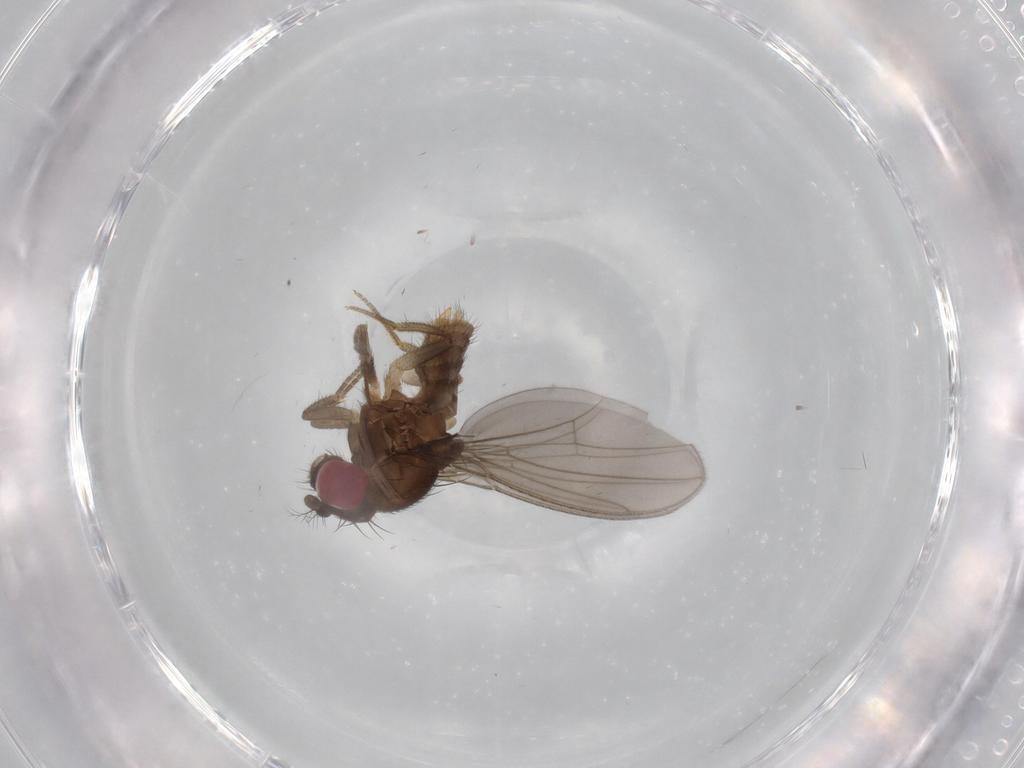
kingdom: Animalia
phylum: Arthropoda
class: Insecta
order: Diptera
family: Drosophilidae
